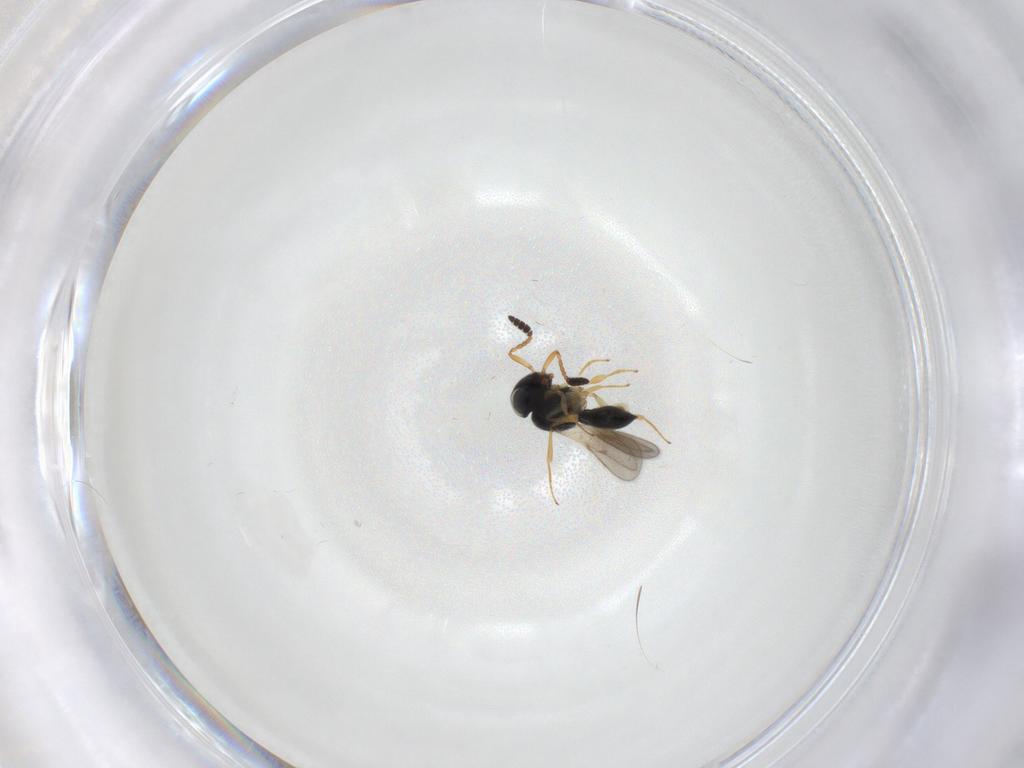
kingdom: Animalia
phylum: Arthropoda
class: Insecta
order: Hymenoptera
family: Scelionidae
